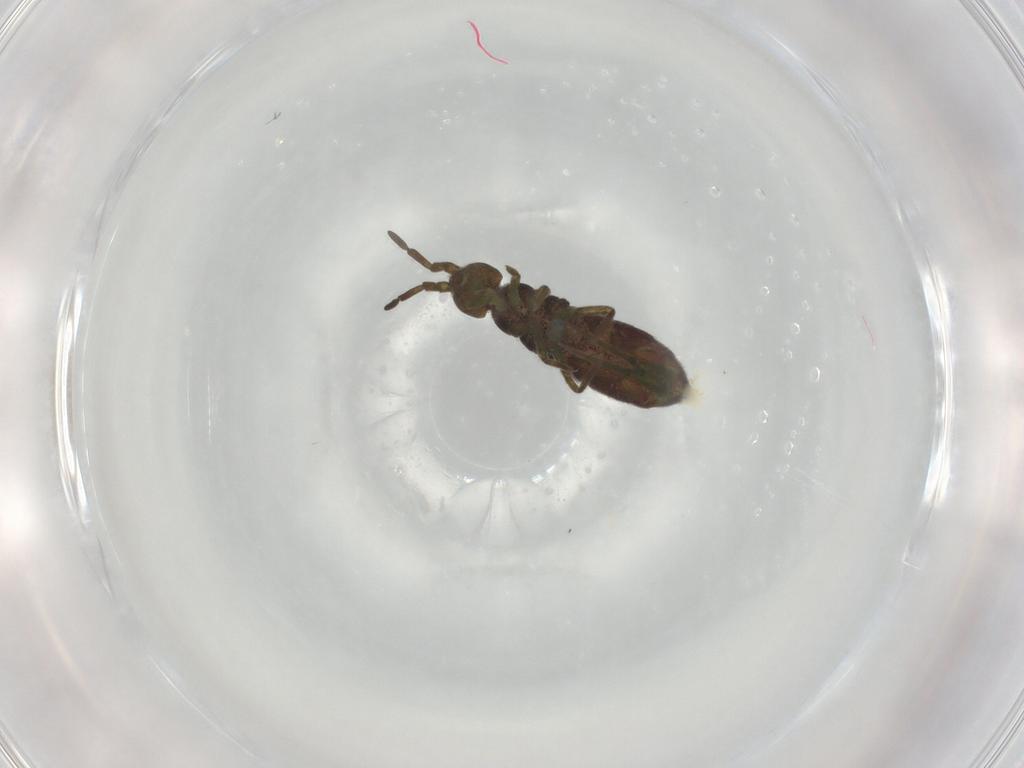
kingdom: Animalia
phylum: Arthropoda
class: Collembola
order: Entomobryomorpha
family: Isotomidae
